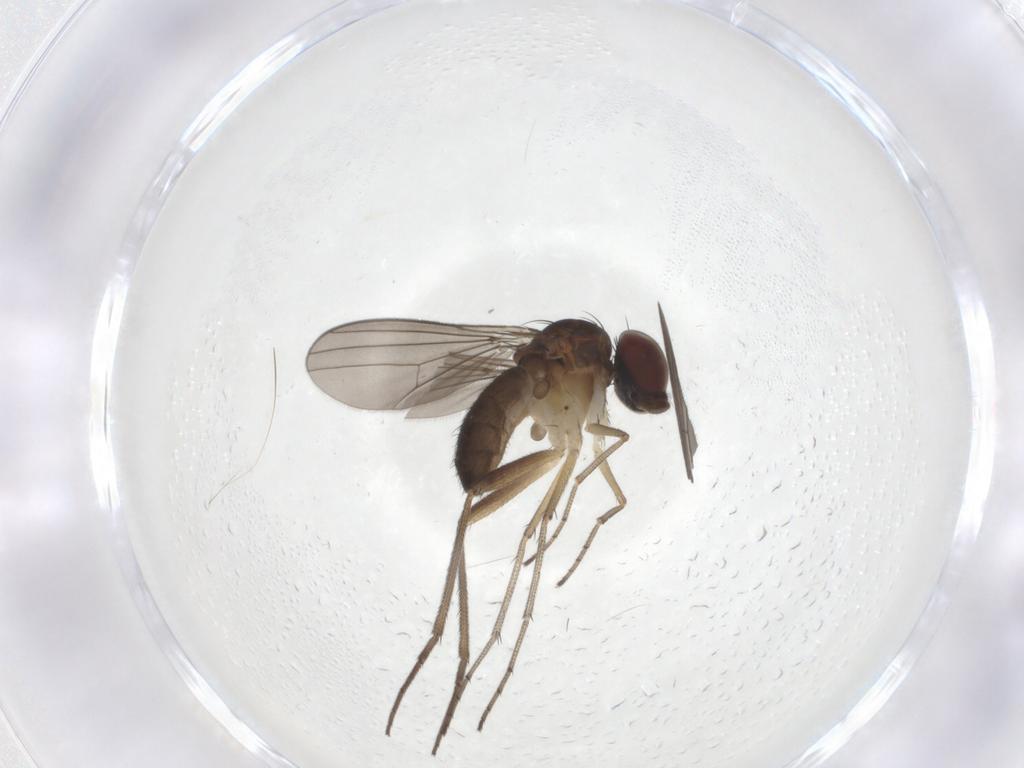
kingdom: Animalia
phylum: Arthropoda
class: Insecta
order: Diptera
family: Dolichopodidae
